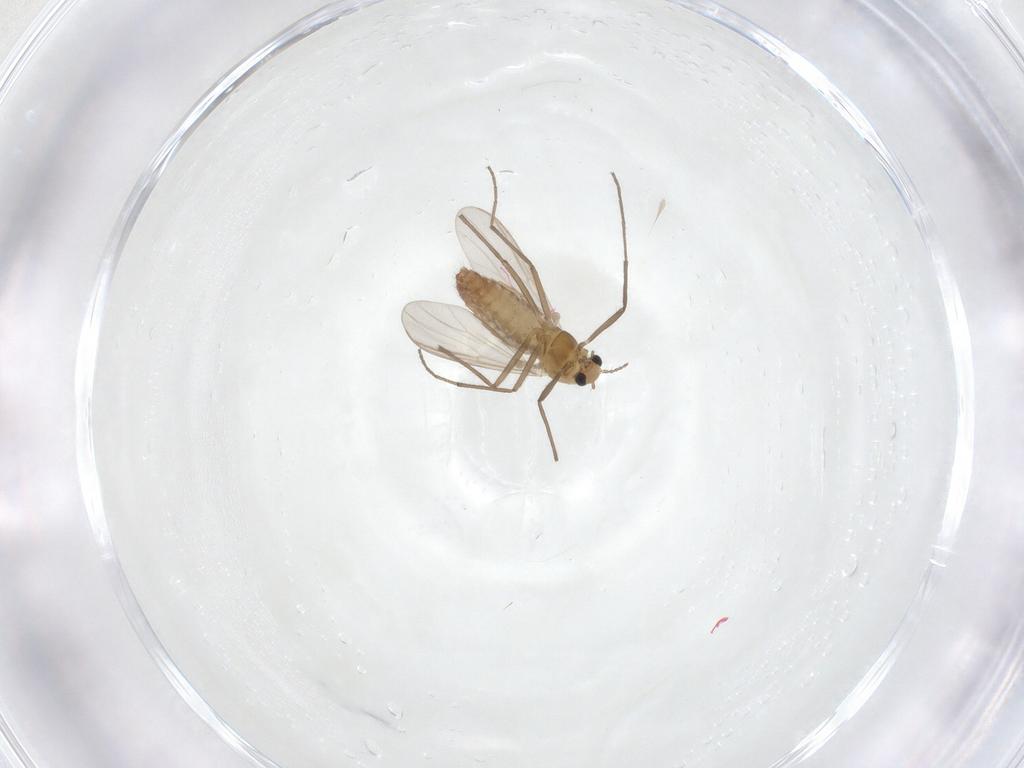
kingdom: Animalia
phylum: Arthropoda
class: Insecta
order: Diptera
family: Chironomidae
